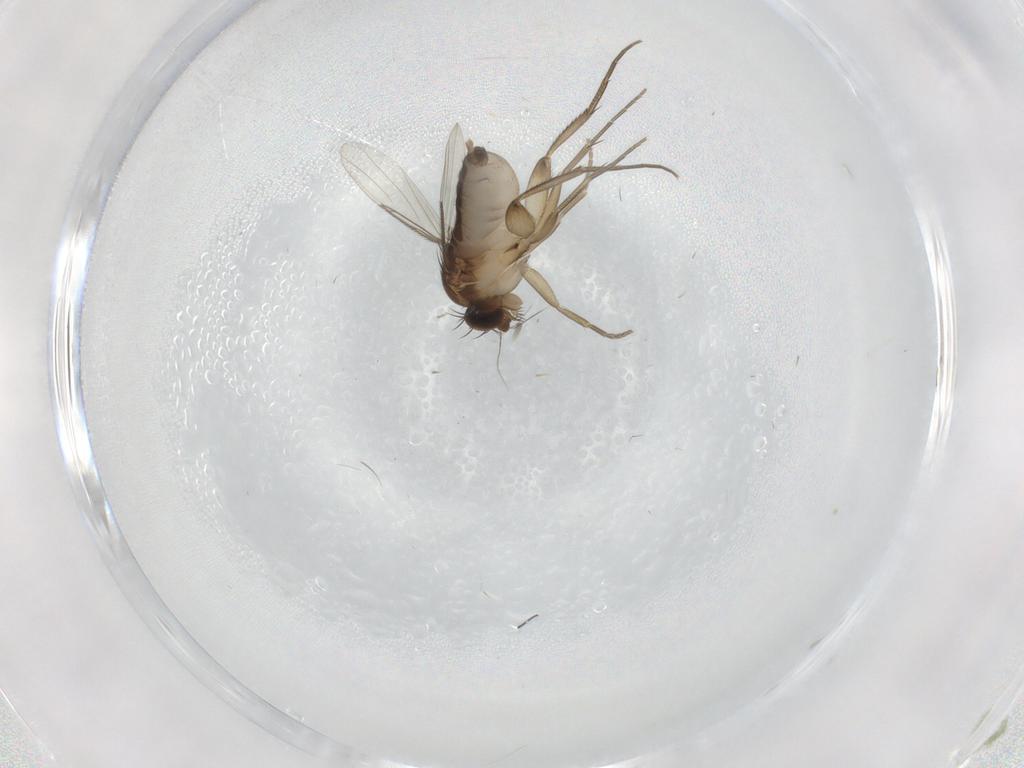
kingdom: Animalia
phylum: Arthropoda
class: Insecta
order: Diptera
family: Phoridae
